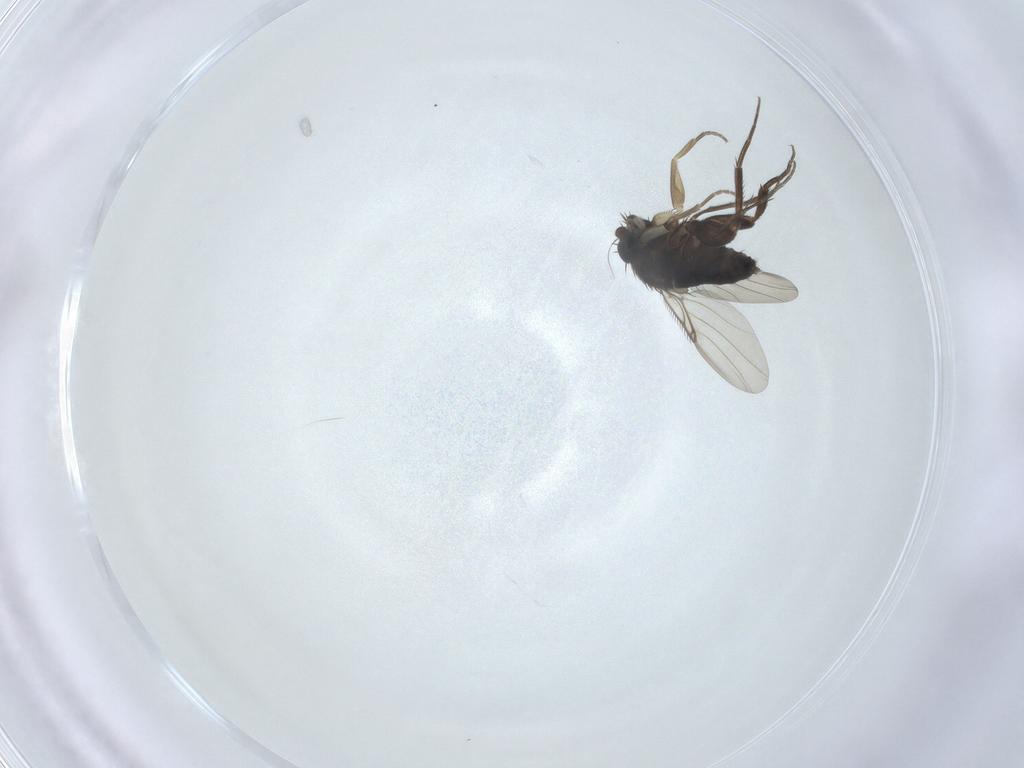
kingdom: Animalia
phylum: Arthropoda
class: Insecta
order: Diptera
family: Phoridae
